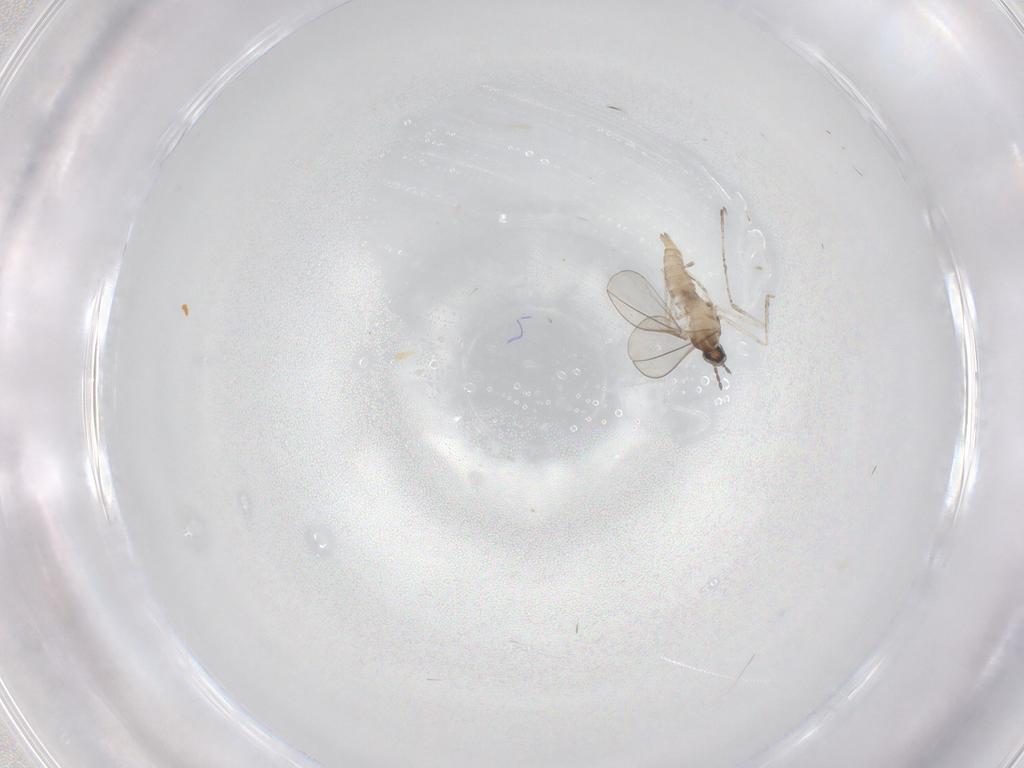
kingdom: Animalia
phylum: Arthropoda
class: Insecta
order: Diptera
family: Cecidomyiidae
